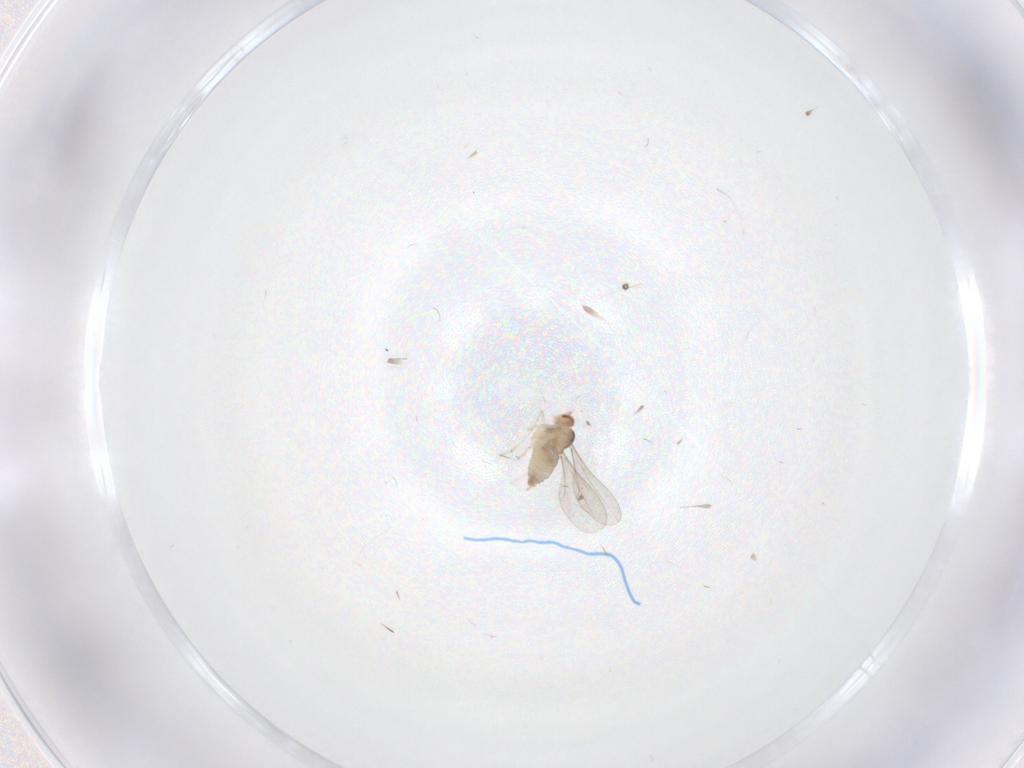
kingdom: Animalia
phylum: Arthropoda
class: Insecta
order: Diptera
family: Cecidomyiidae
